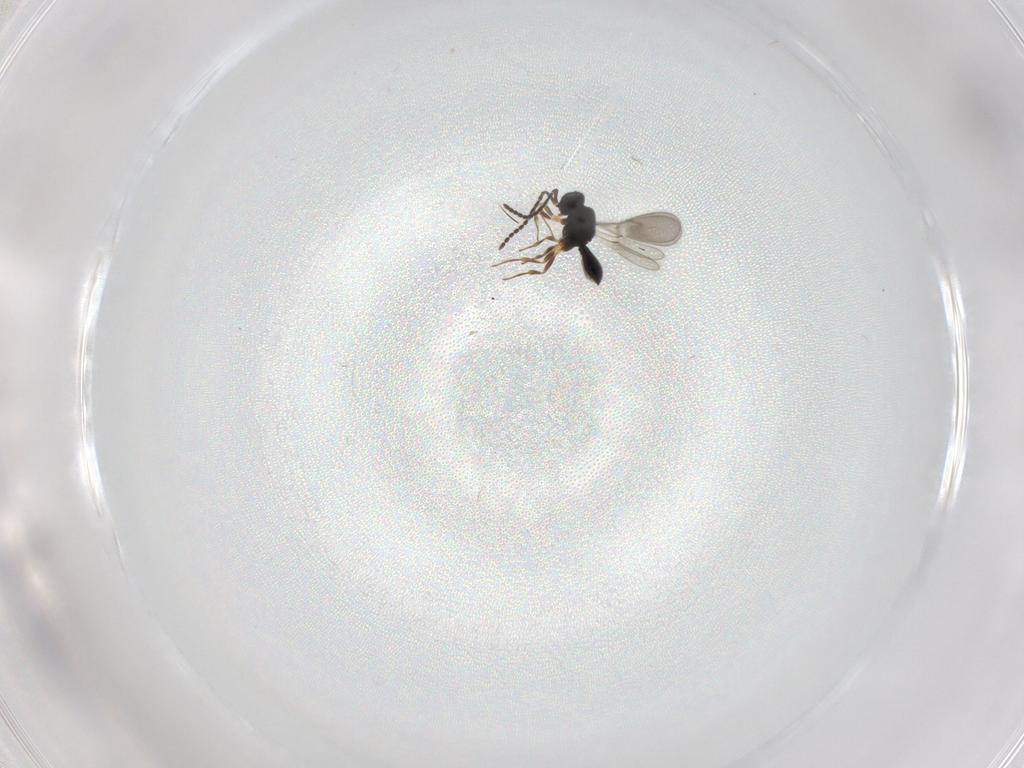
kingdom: Animalia
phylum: Arthropoda
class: Insecta
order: Hymenoptera
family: Scelionidae
